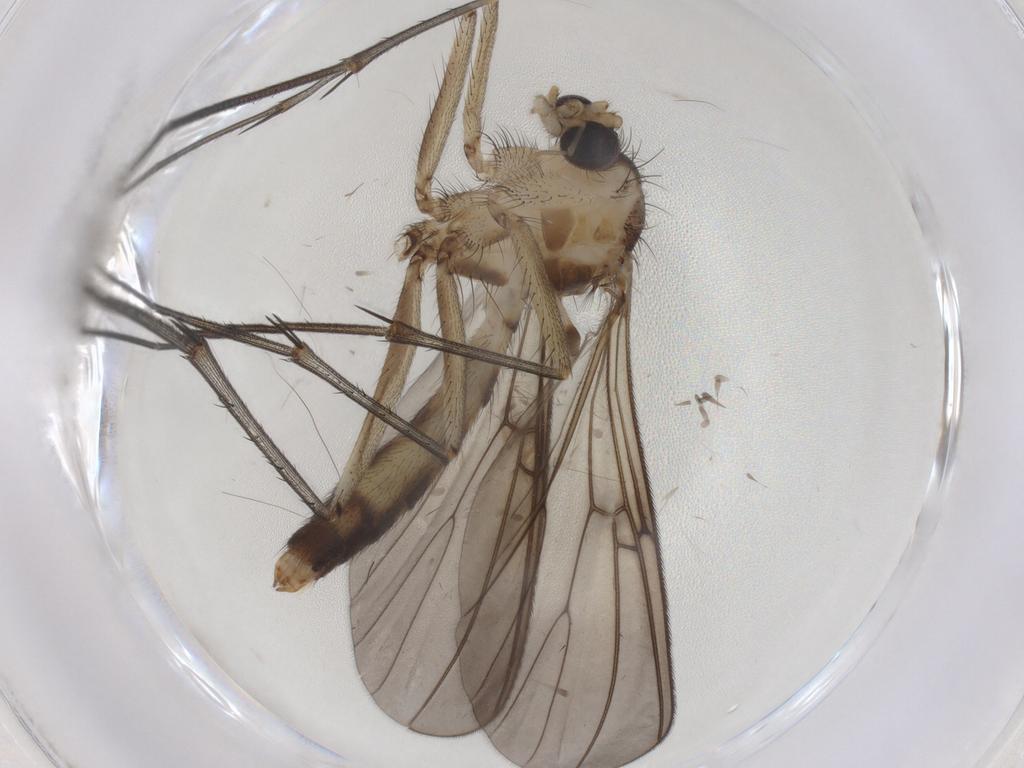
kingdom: Animalia
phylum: Arthropoda
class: Insecta
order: Diptera
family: Mycetophilidae
